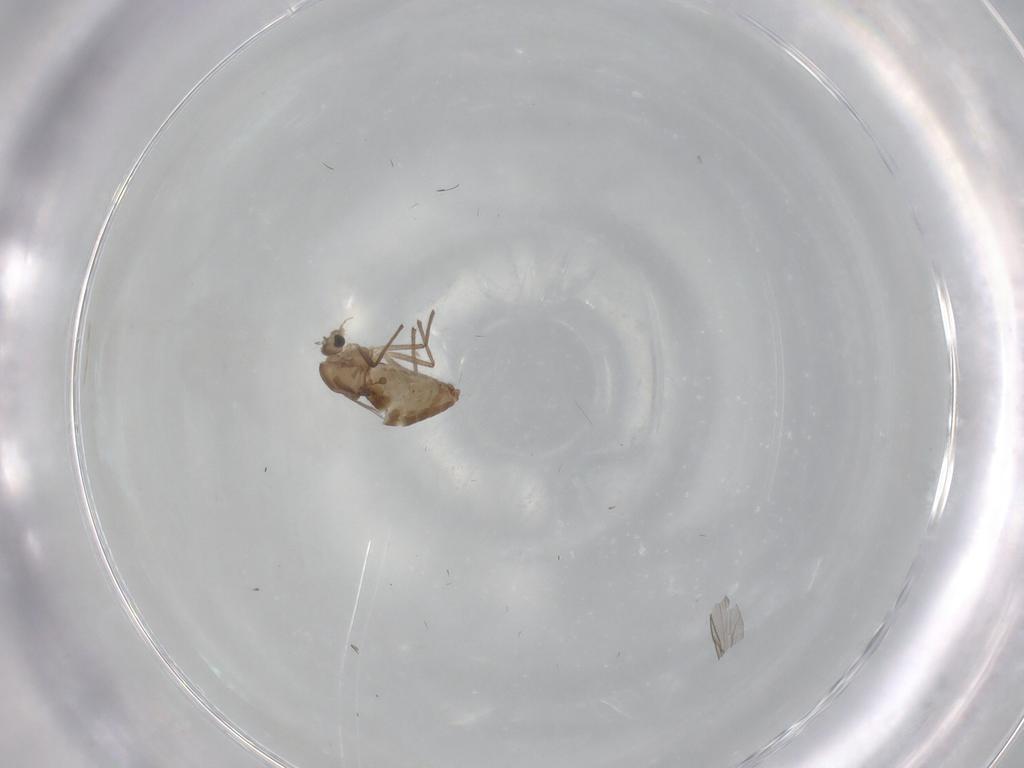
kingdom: Animalia
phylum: Arthropoda
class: Insecta
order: Diptera
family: Chironomidae
